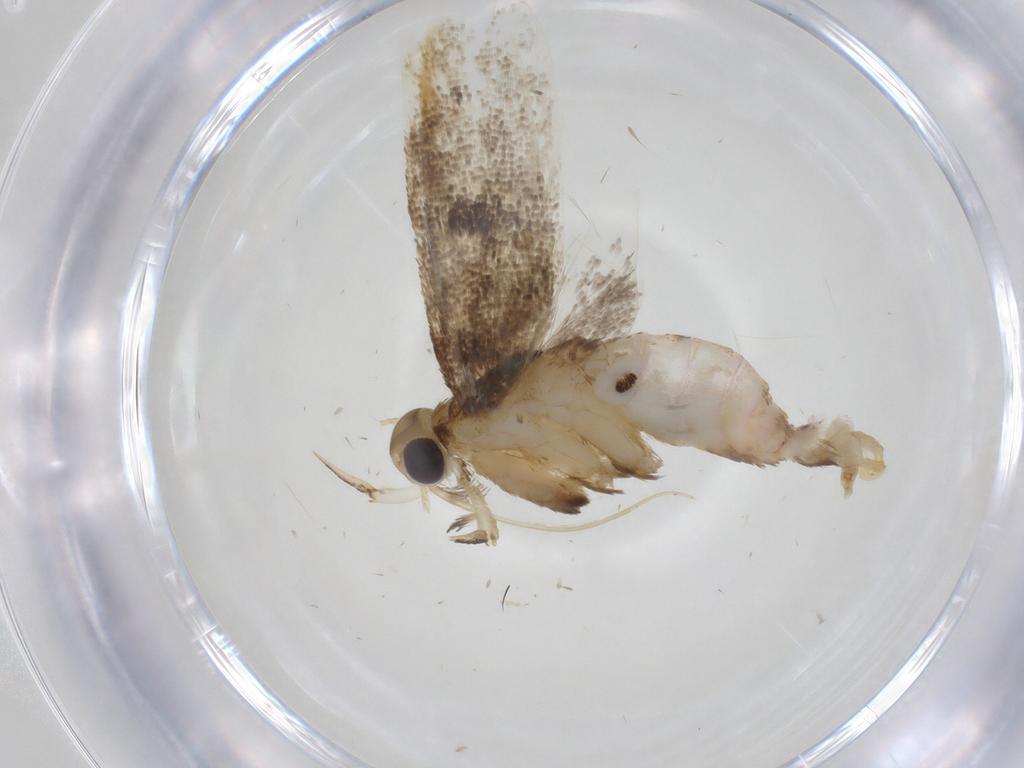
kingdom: Animalia
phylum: Arthropoda
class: Insecta
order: Lepidoptera
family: Lecithoceridae
